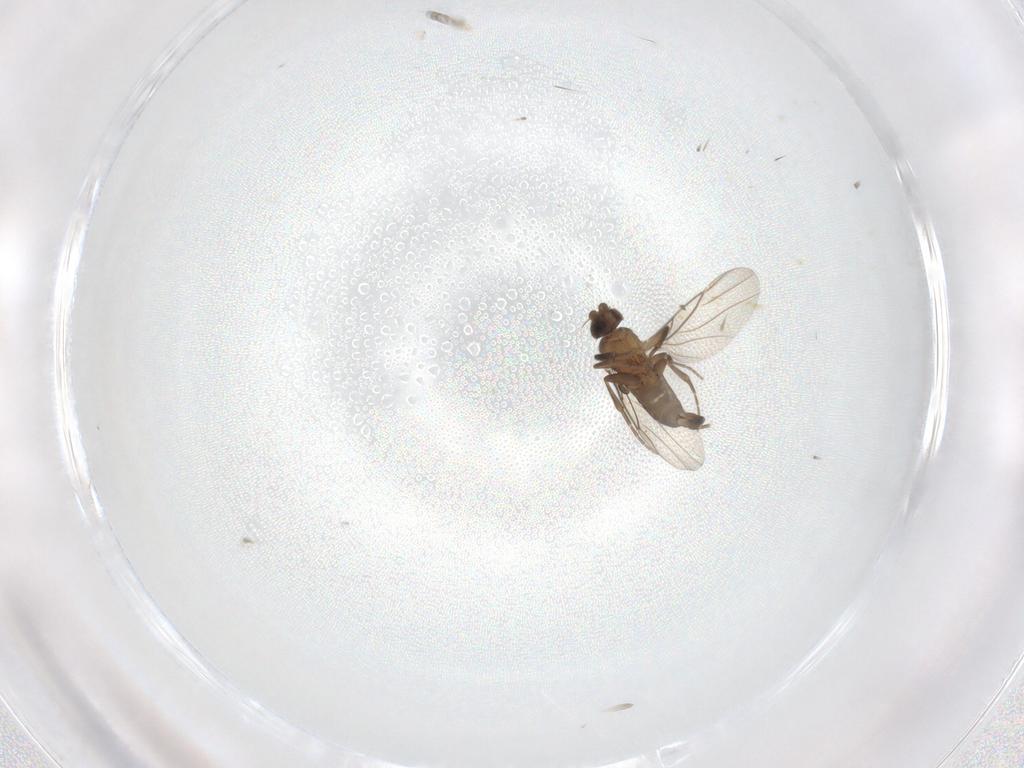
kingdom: Animalia
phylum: Arthropoda
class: Insecta
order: Diptera
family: Phoridae
